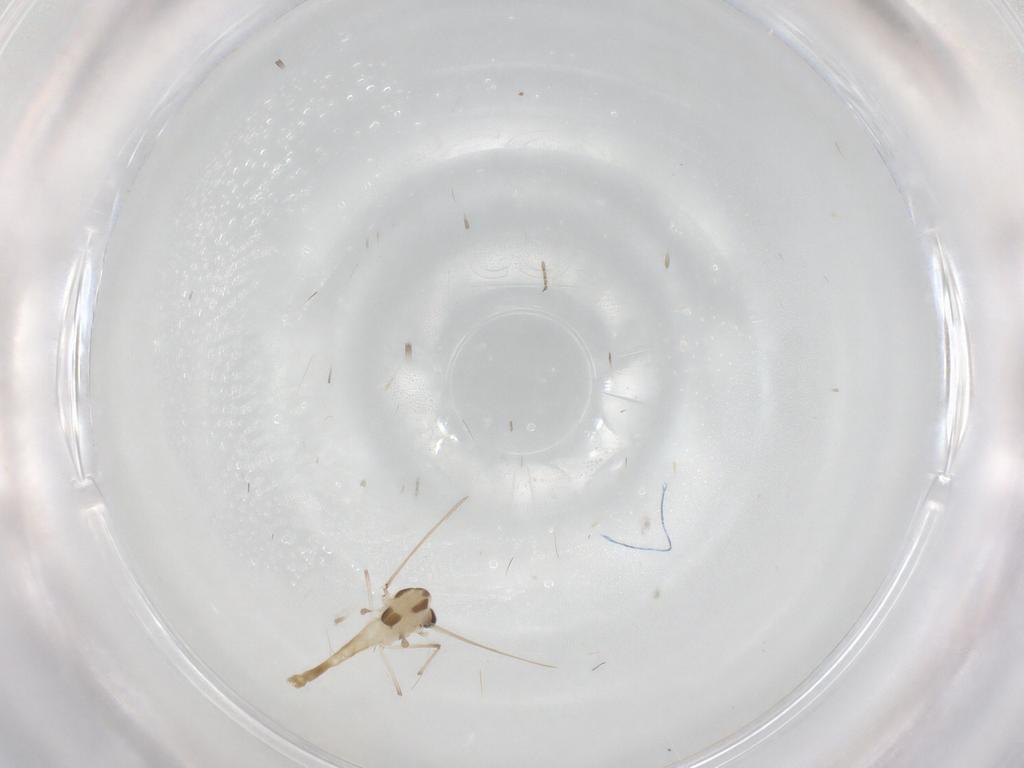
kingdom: Animalia
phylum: Arthropoda
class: Insecta
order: Diptera
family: Chironomidae
